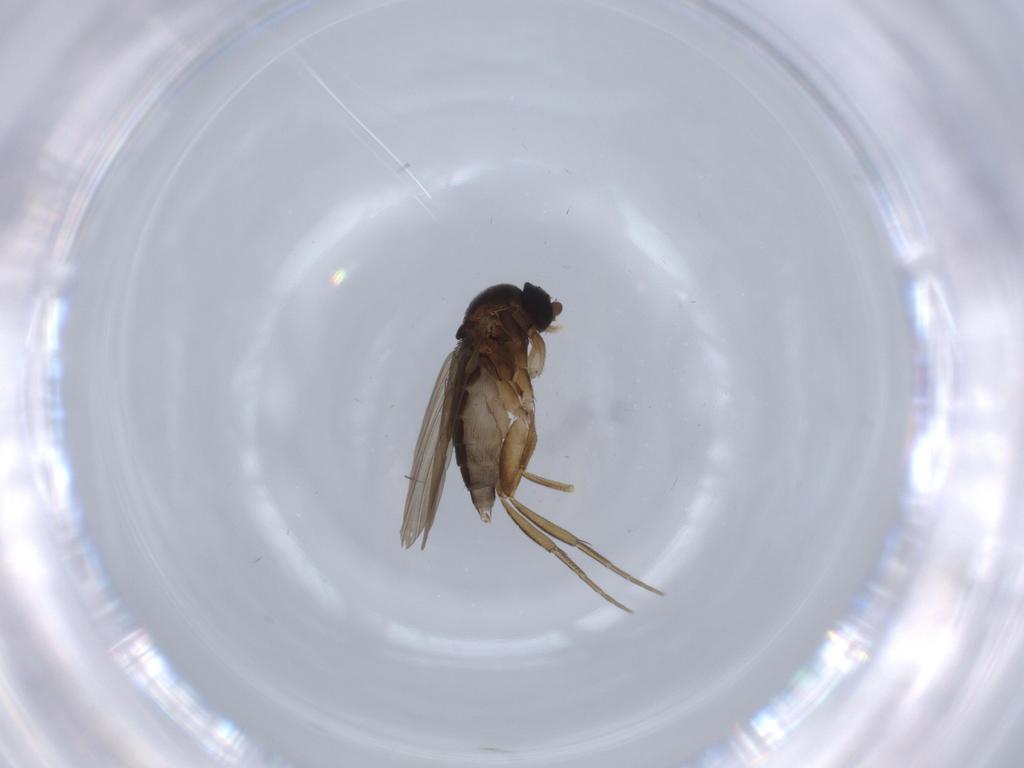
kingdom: Animalia
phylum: Arthropoda
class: Insecta
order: Diptera
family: Phoridae
